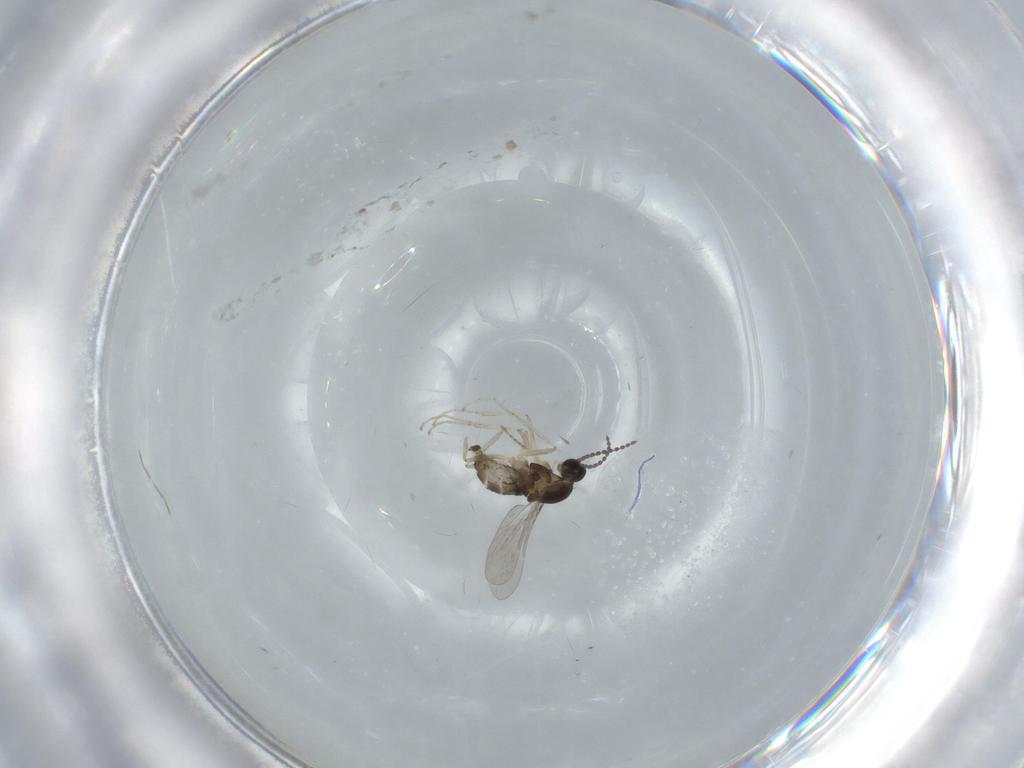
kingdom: Animalia
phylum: Arthropoda
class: Insecta
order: Diptera
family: Cecidomyiidae
